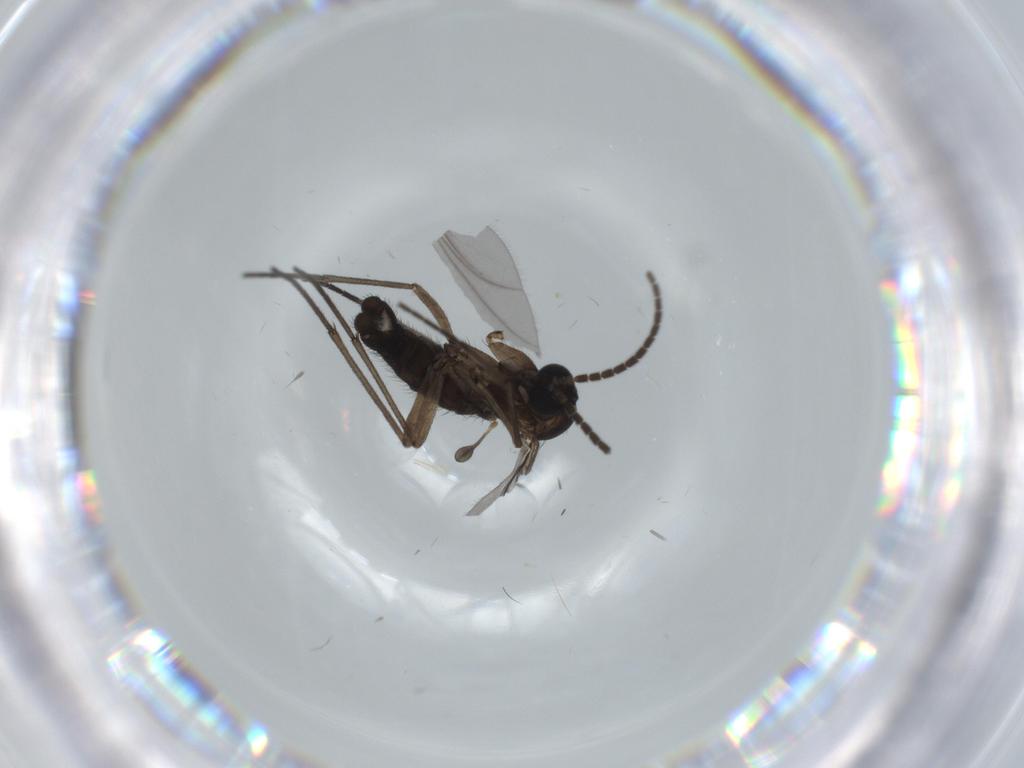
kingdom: Animalia
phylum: Arthropoda
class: Insecta
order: Diptera
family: Sciaridae
